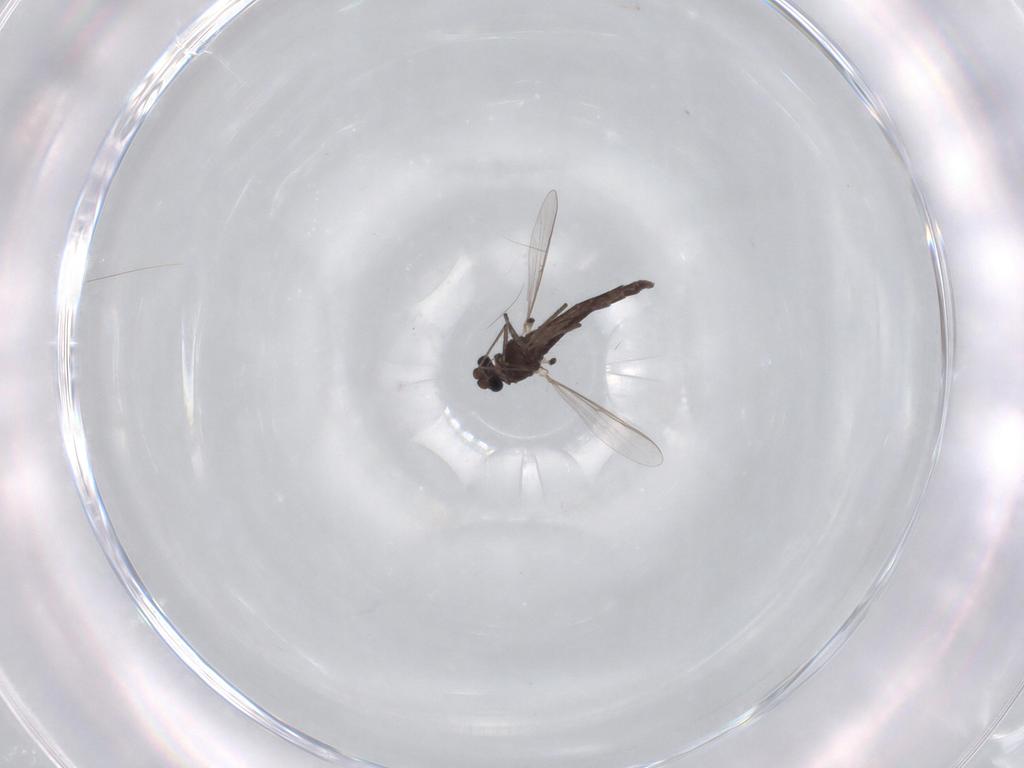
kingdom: Animalia
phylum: Arthropoda
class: Insecta
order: Diptera
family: Chironomidae
